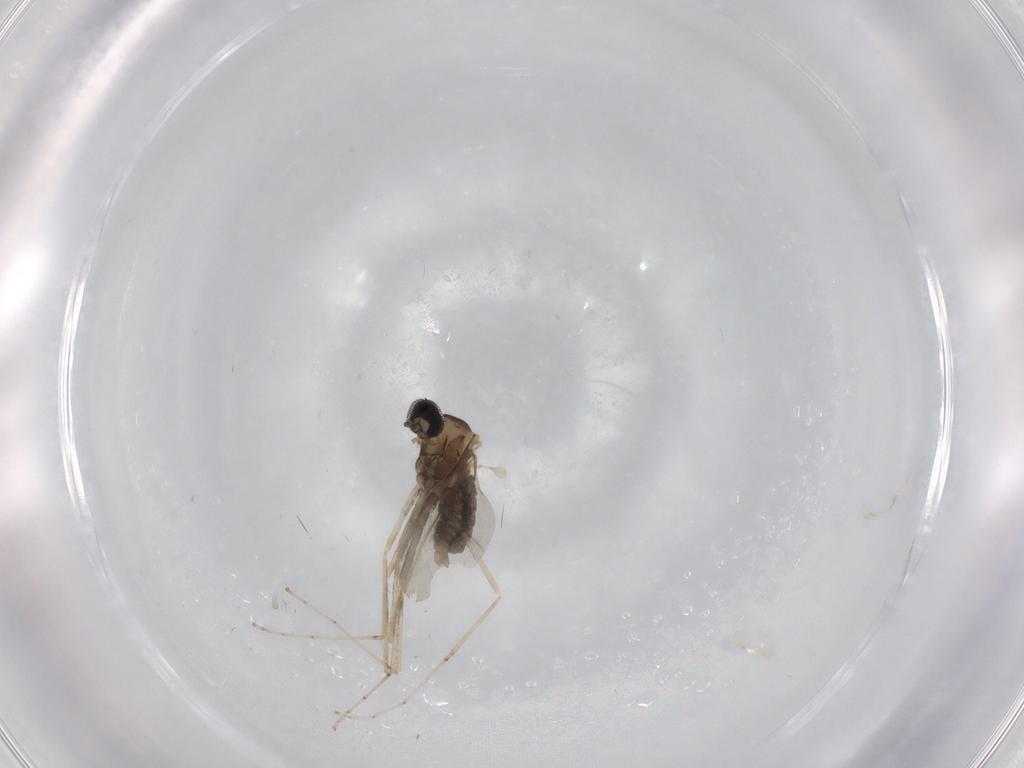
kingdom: Animalia
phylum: Arthropoda
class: Insecta
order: Diptera
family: Cecidomyiidae
